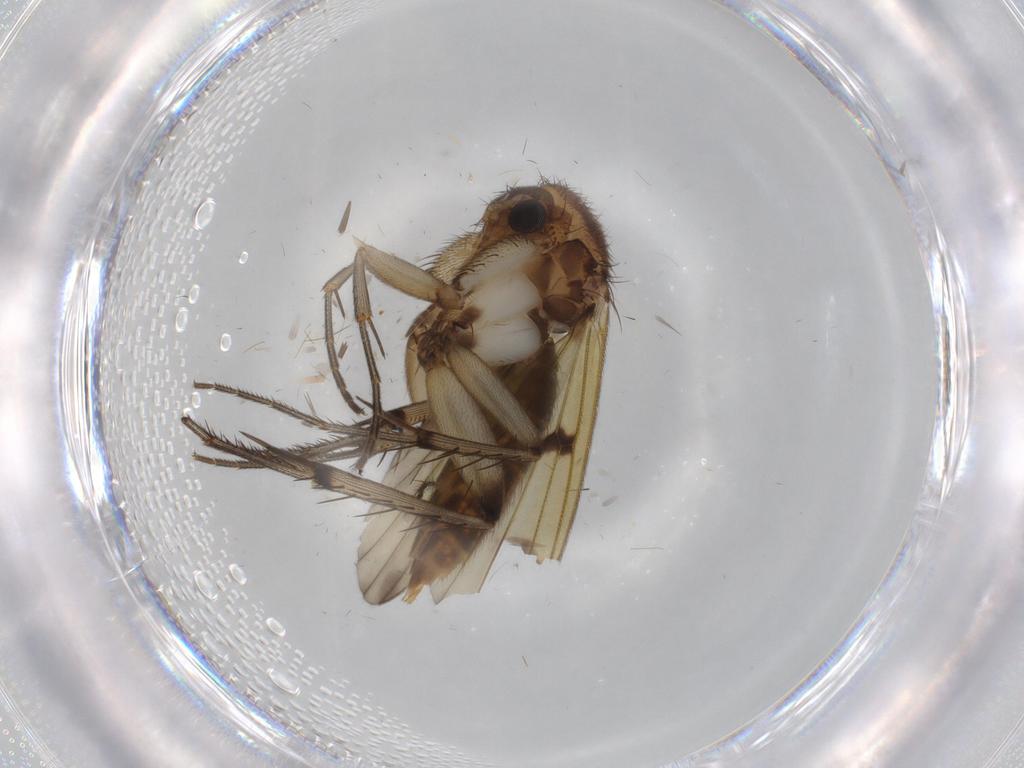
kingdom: Animalia
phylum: Arthropoda
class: Insecta
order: Diptera
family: Mycetophilidae
